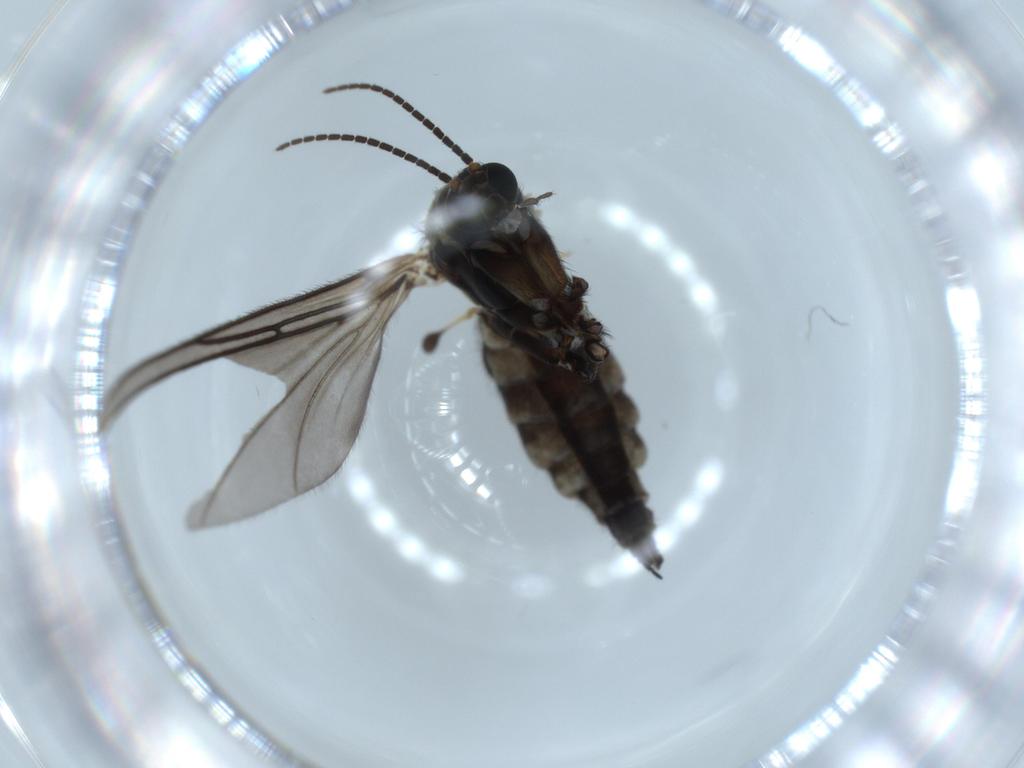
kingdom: Animalia
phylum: Arthropoda
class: Insecta
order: Diptera
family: Sciaridae
